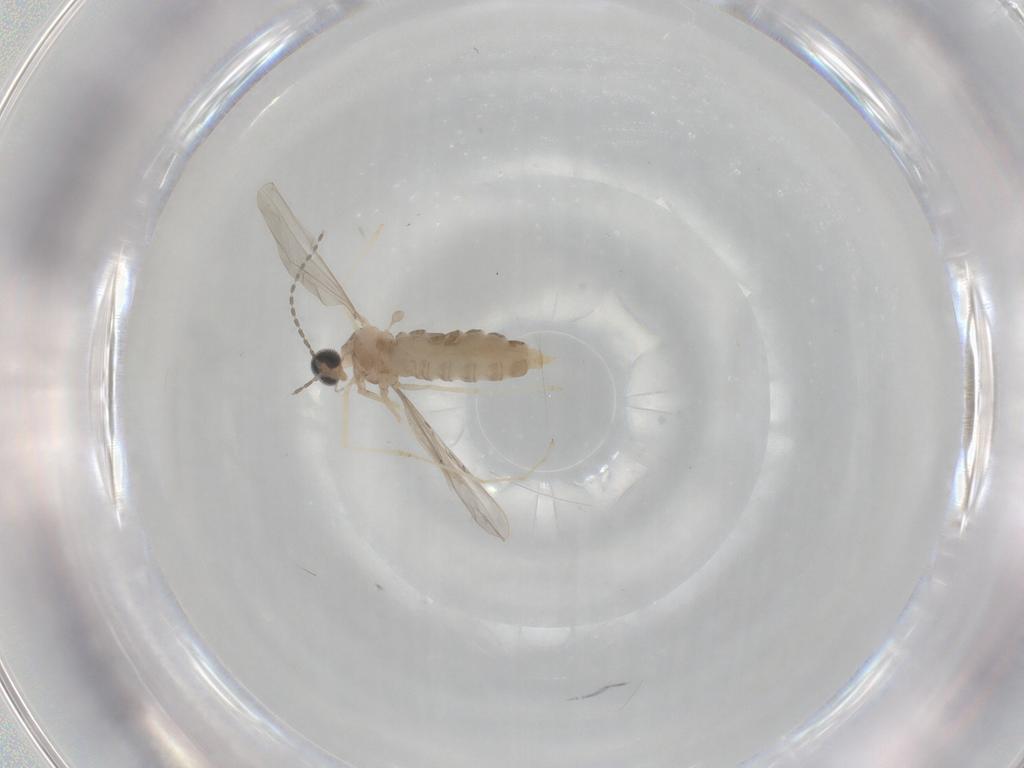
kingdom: Animalia
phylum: Arthropoda
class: Insecta
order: Diptera
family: Cecidomyiidae
